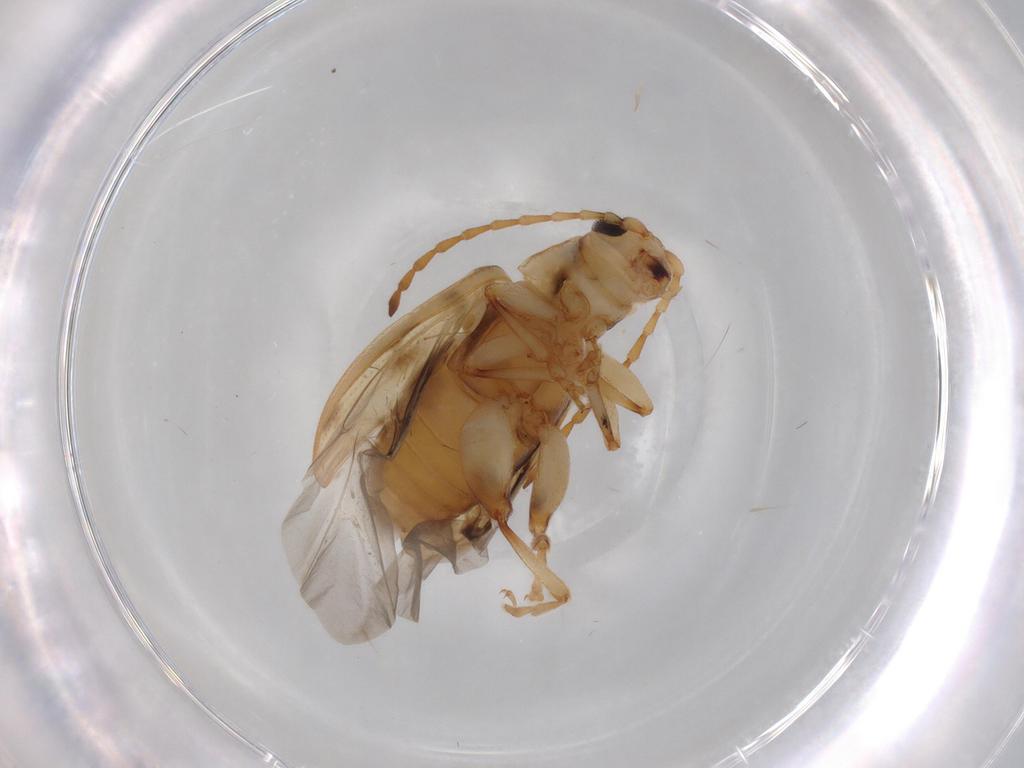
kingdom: Animalia
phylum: Arthropoda
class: Insecta
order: Coleoptera
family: Chrysomelidae
